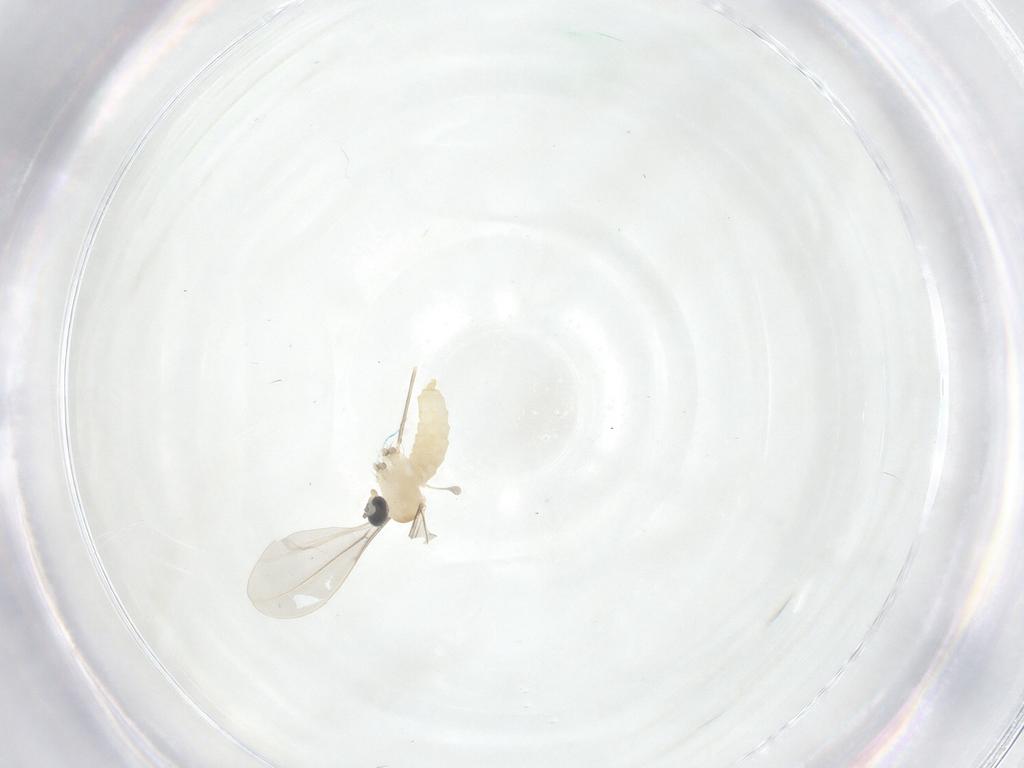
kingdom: Animalia
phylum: Arthropoda
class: Insecta
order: Diptera
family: Cecidomyiidae
